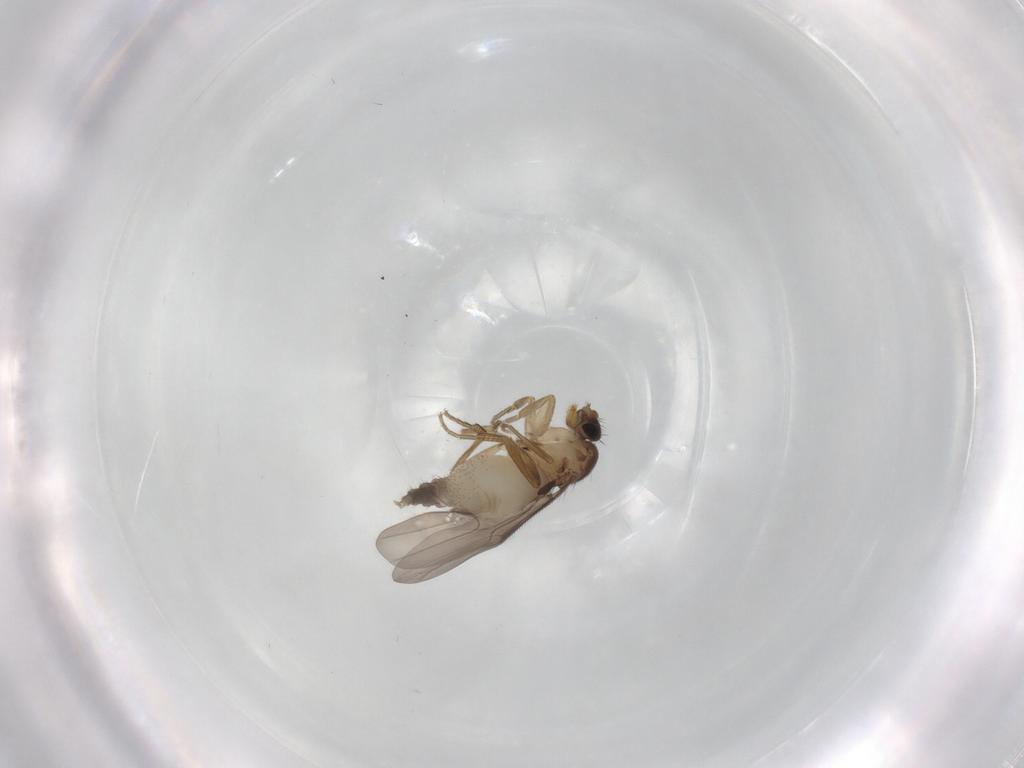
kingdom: Animalia
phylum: Arthropoda
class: Insecta
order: Diptera
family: Phoridae
